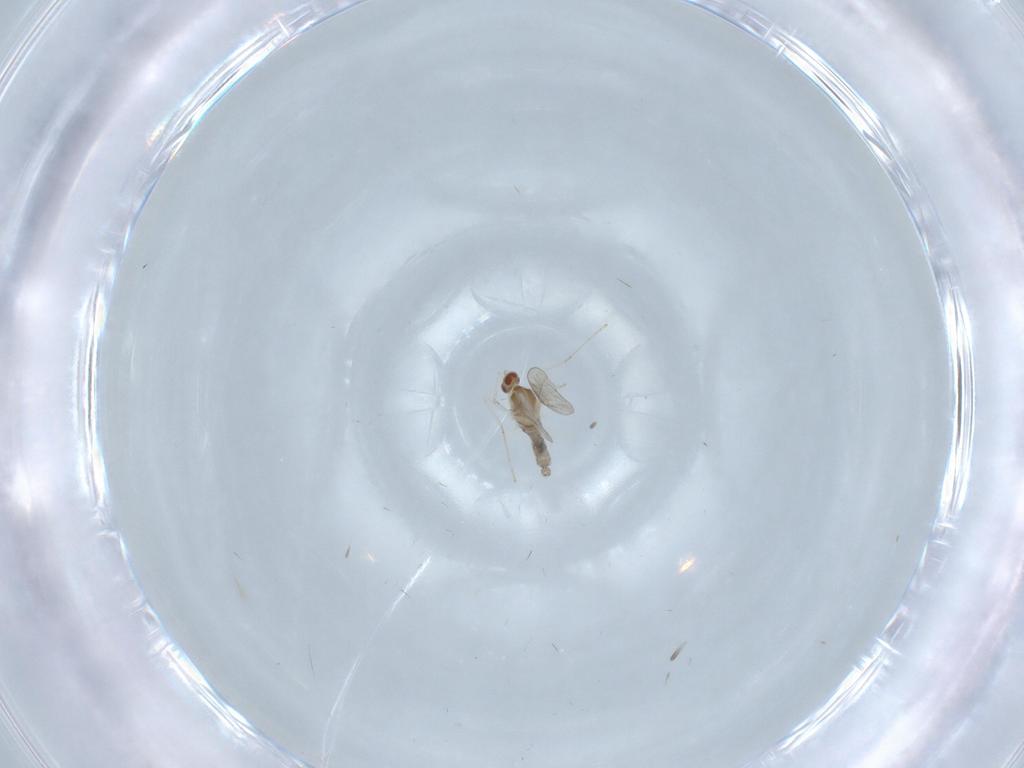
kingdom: Animalia
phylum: Arthropoda
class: Insecta
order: Diptera
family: Cecidomyiidae
